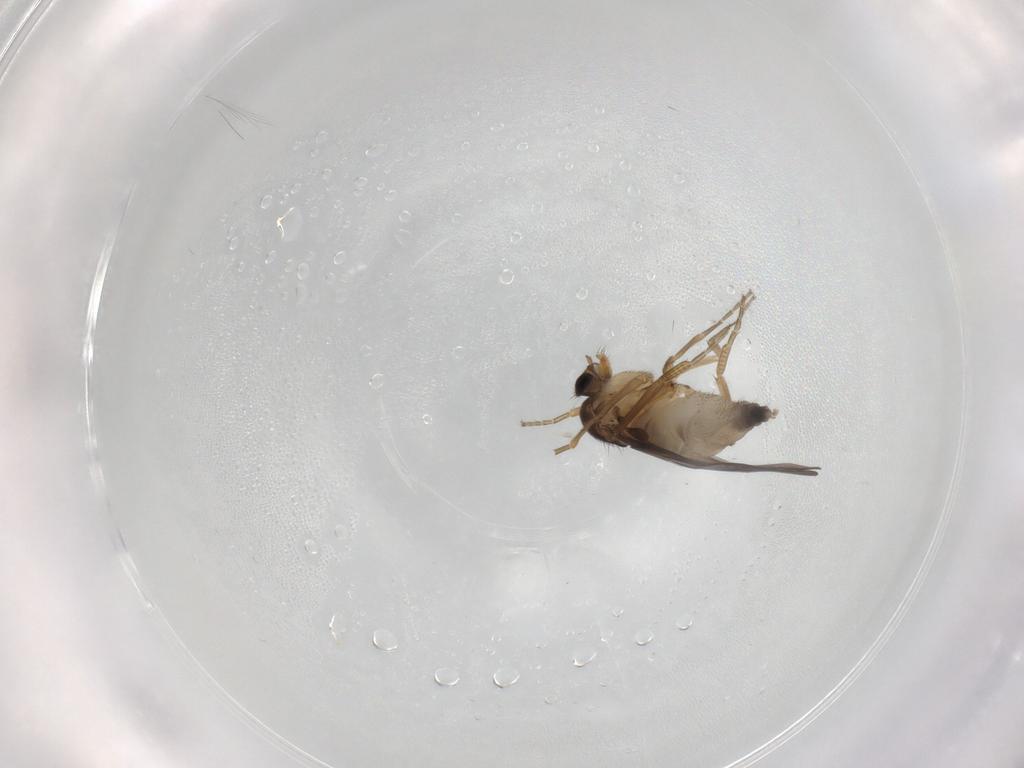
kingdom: Animalia
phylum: Arthropoda
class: Insecta
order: Diptera
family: Phoridae
